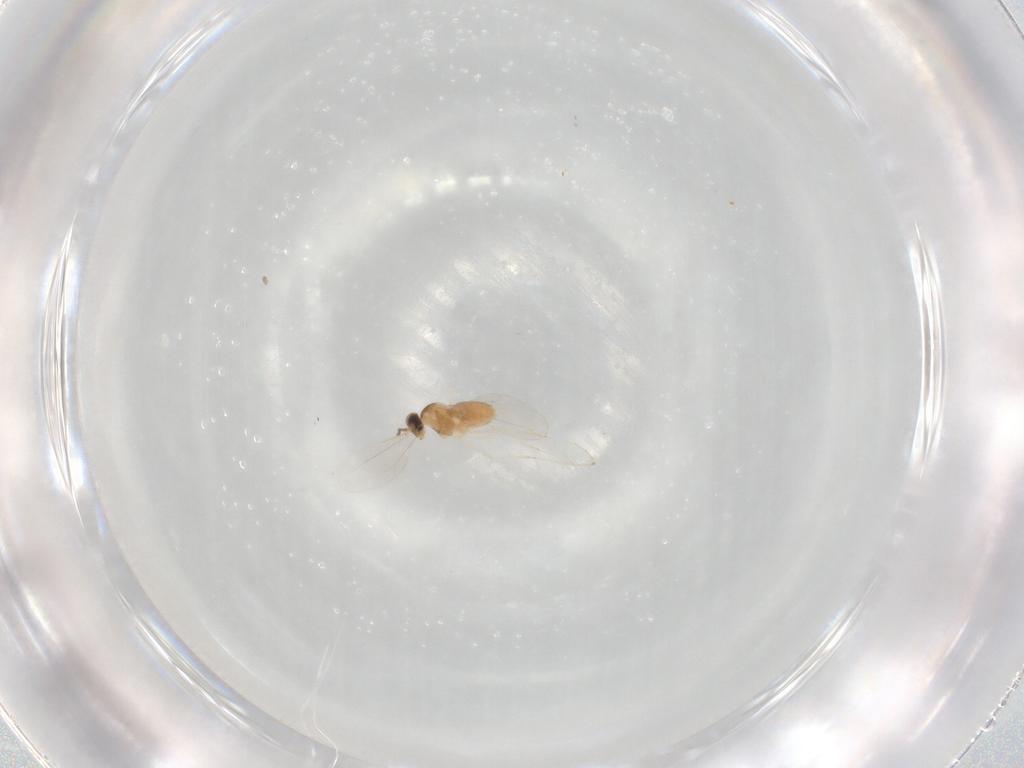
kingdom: Animalia
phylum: Arthropoda
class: Insecta
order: Diptera
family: Cecidomyiidae
